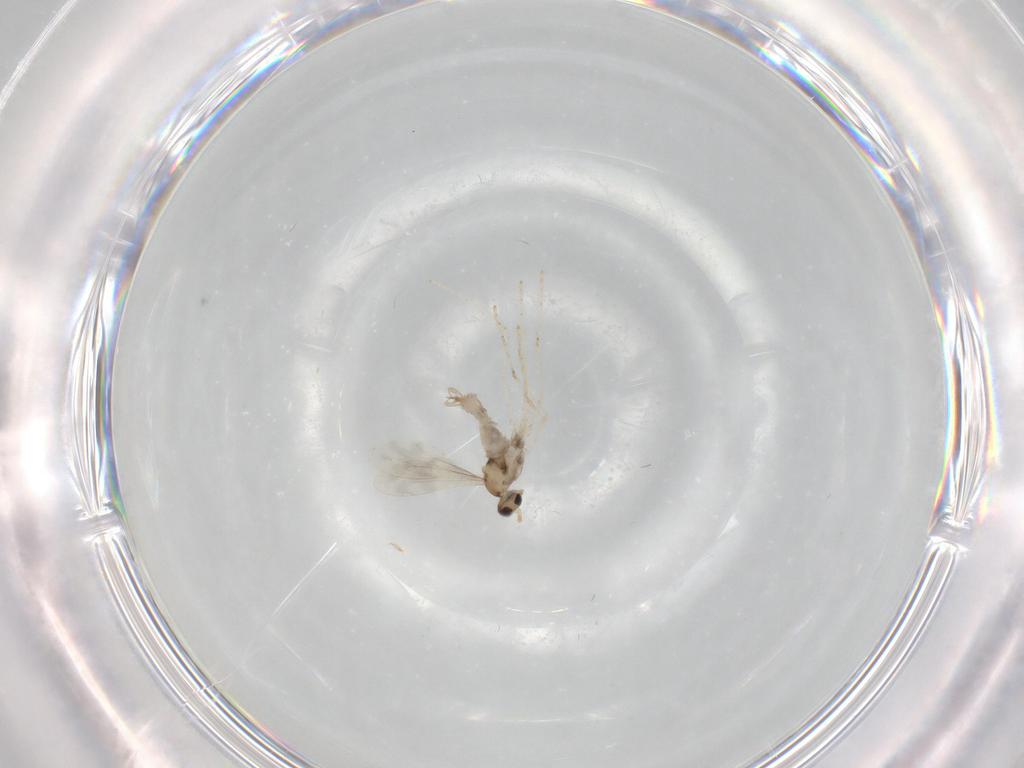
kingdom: Animalia
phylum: Arthropoda
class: Insecta
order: Diptera
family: Cecidomyiidae
